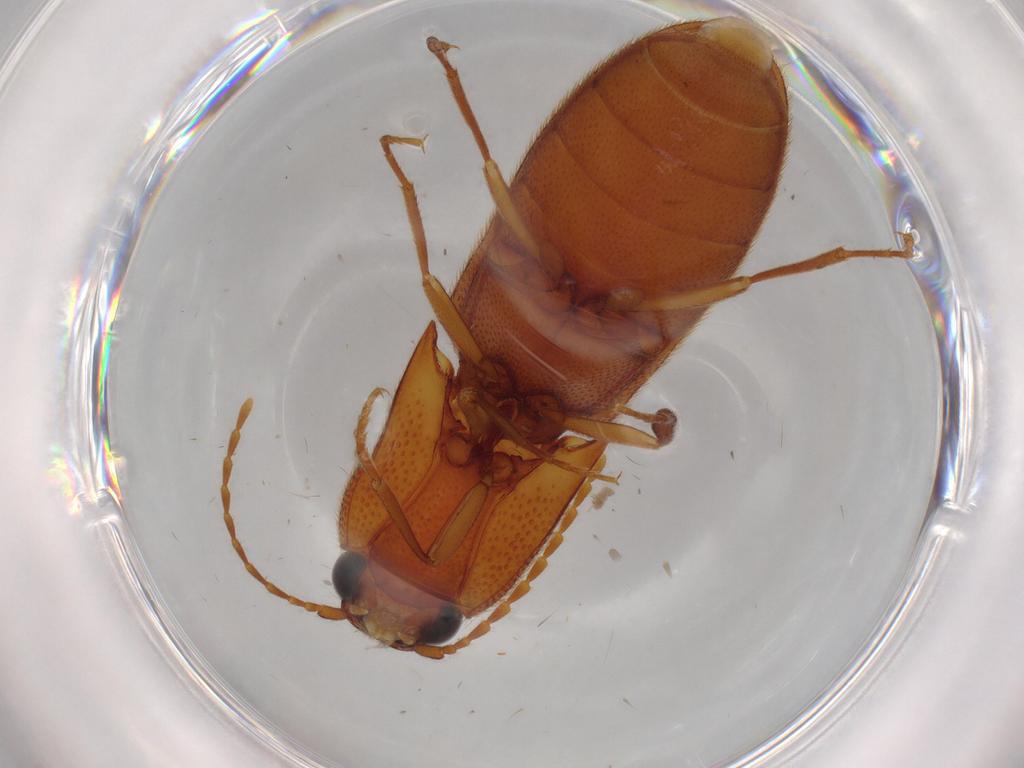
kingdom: Animalia
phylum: Arthropoda
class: Insecta
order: Coleoptera
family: Elateridae
